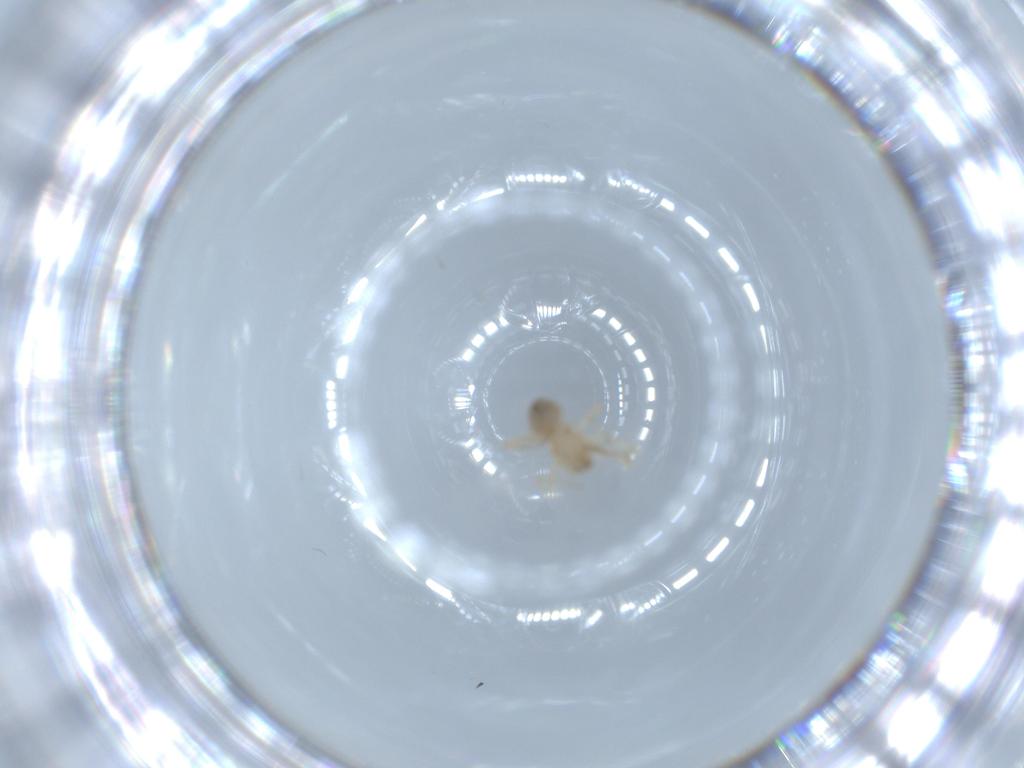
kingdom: Animalia
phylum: Arthropoda
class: Arachnida
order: Araneae
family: Oonopidae
